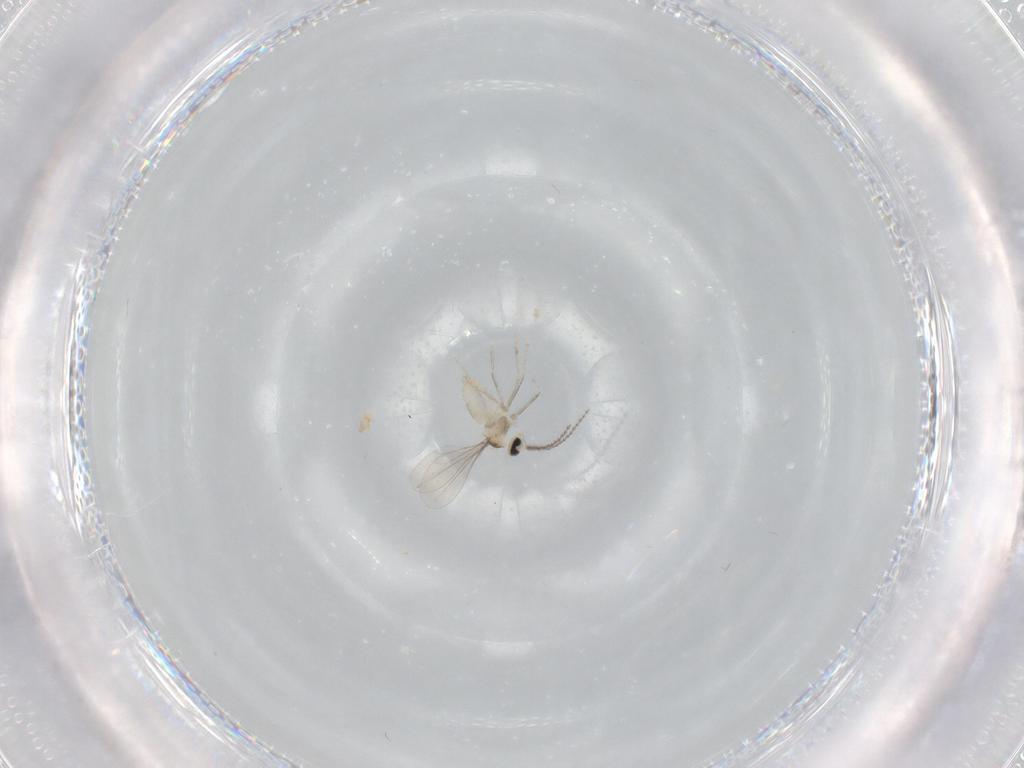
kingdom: Animalia
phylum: Arthropoda
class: Insecta
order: Diptera
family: Cecidomyiidae
